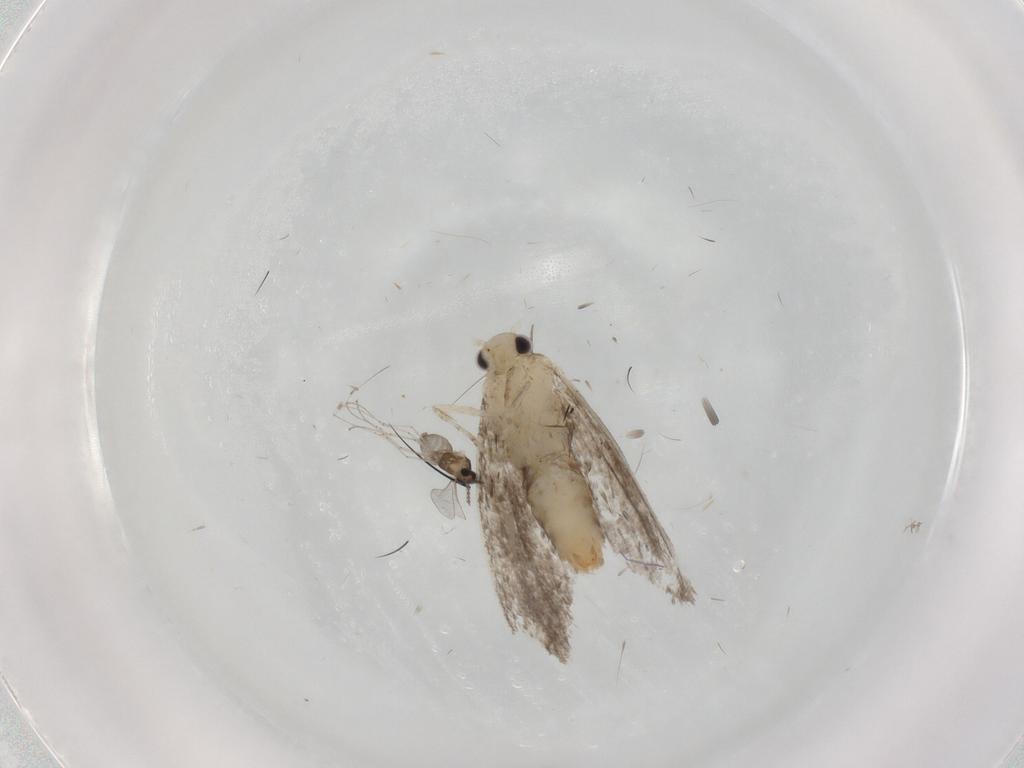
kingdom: Animalia
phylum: Arthropoda
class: Insecta
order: Diptera
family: Cecidomyiidae
